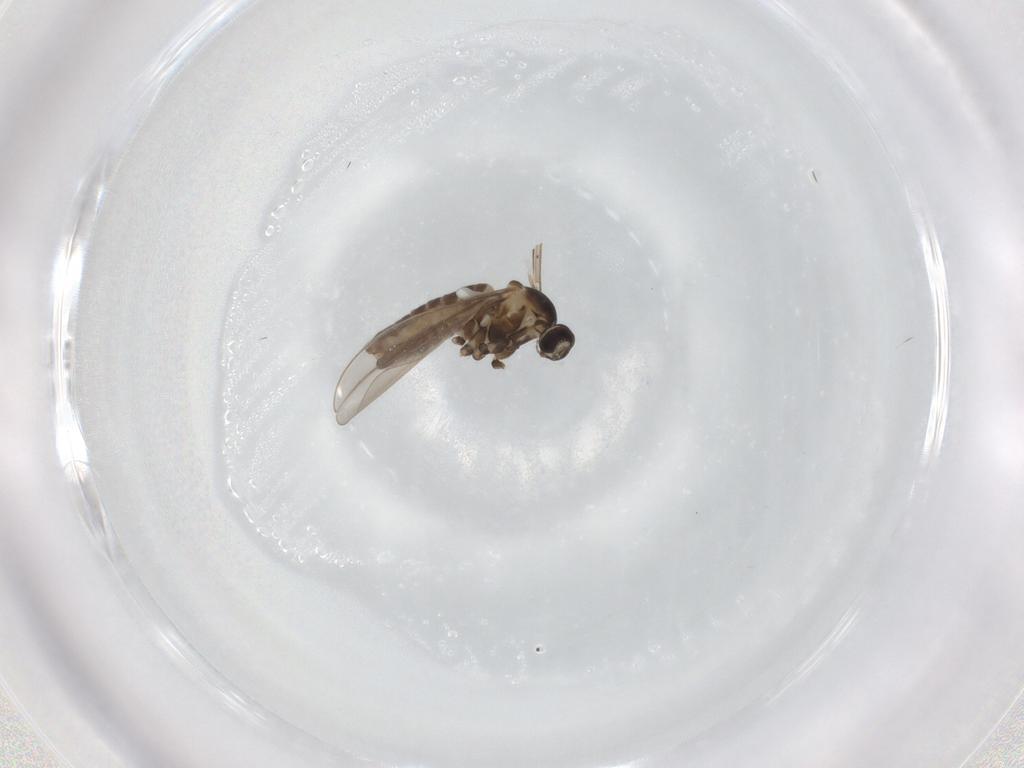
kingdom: Animalia
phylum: Arthropoda
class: Insecta
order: Diptera
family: Cecidomyiidae
